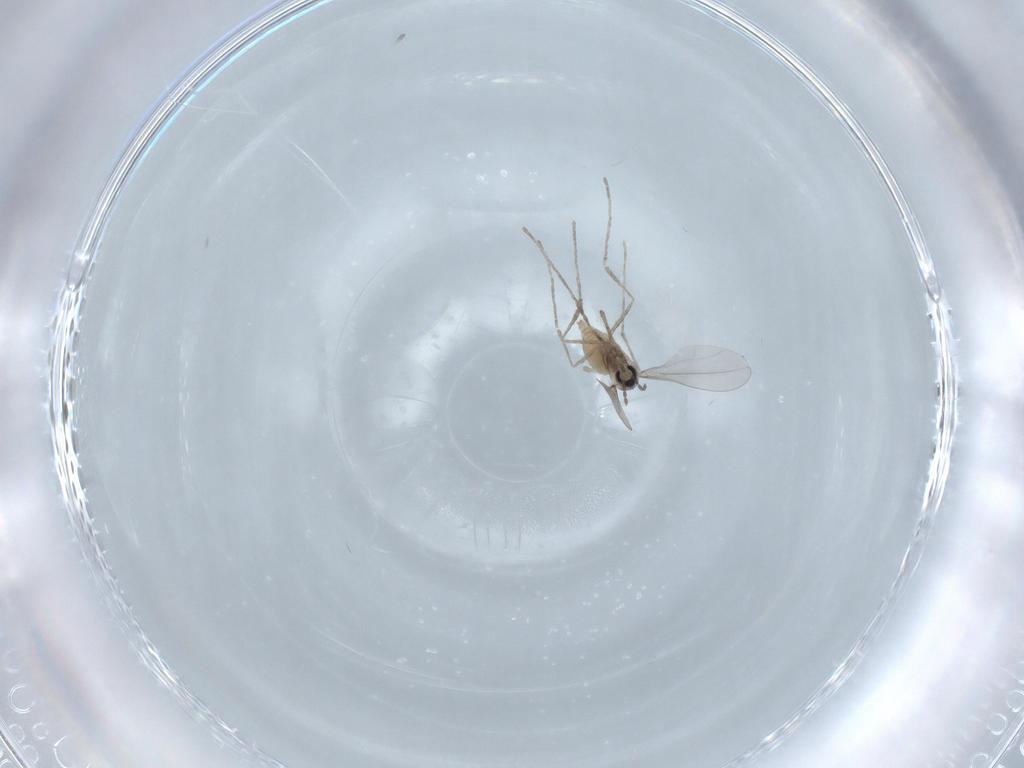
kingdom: Animalia
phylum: Arthropoda
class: Insecta
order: Diptera
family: Cecidomyiidae
